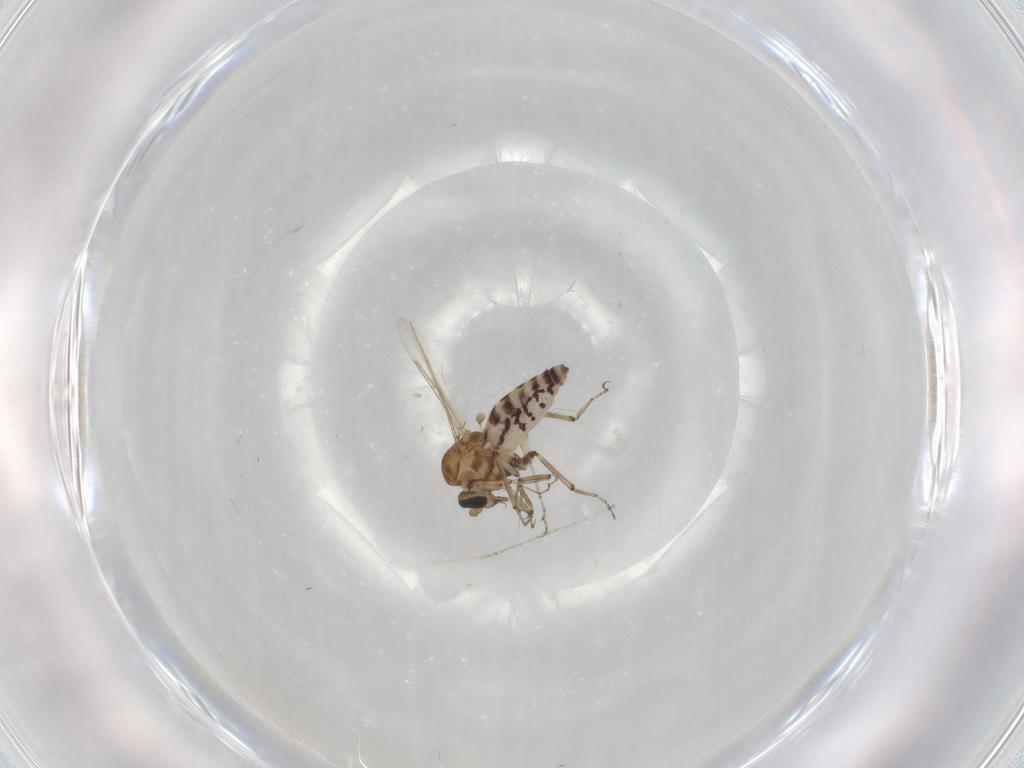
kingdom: Animalia
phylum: Arthropoda
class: Insecta
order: Diptera
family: Ceratopogonidae
